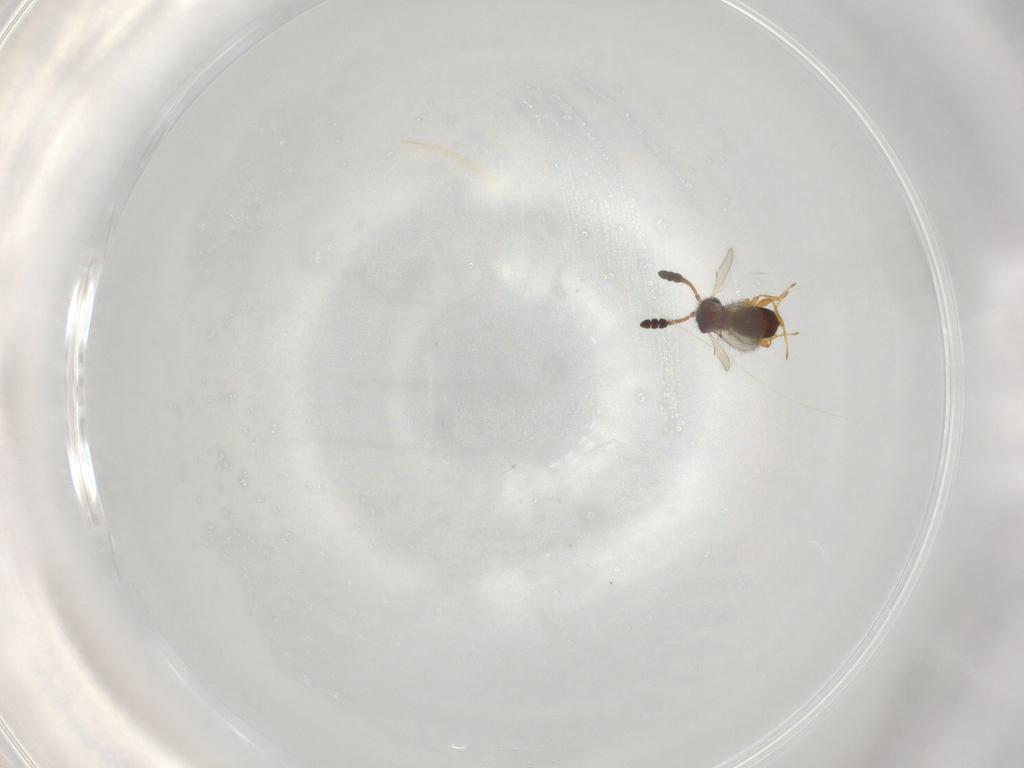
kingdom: Animalia
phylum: Arthropoda
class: Insecta
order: Hymenoptera
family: Diapriidae
